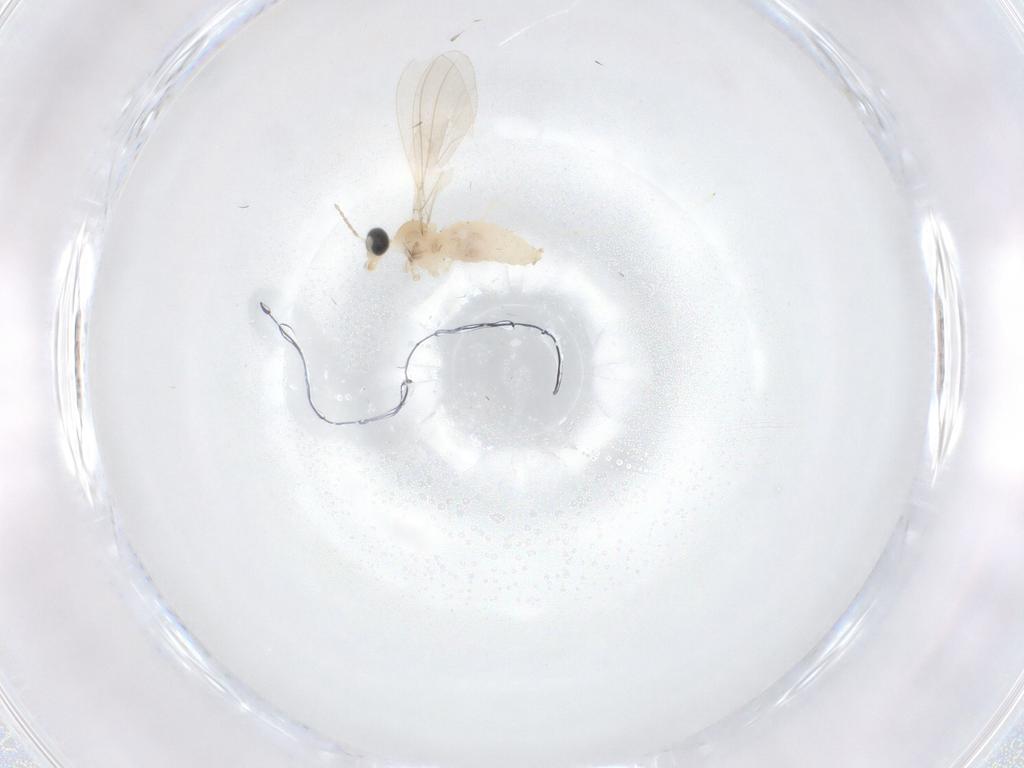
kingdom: Animalia
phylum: Arthropoda
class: Insecta
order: Diptera
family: Cecidomyiidae
